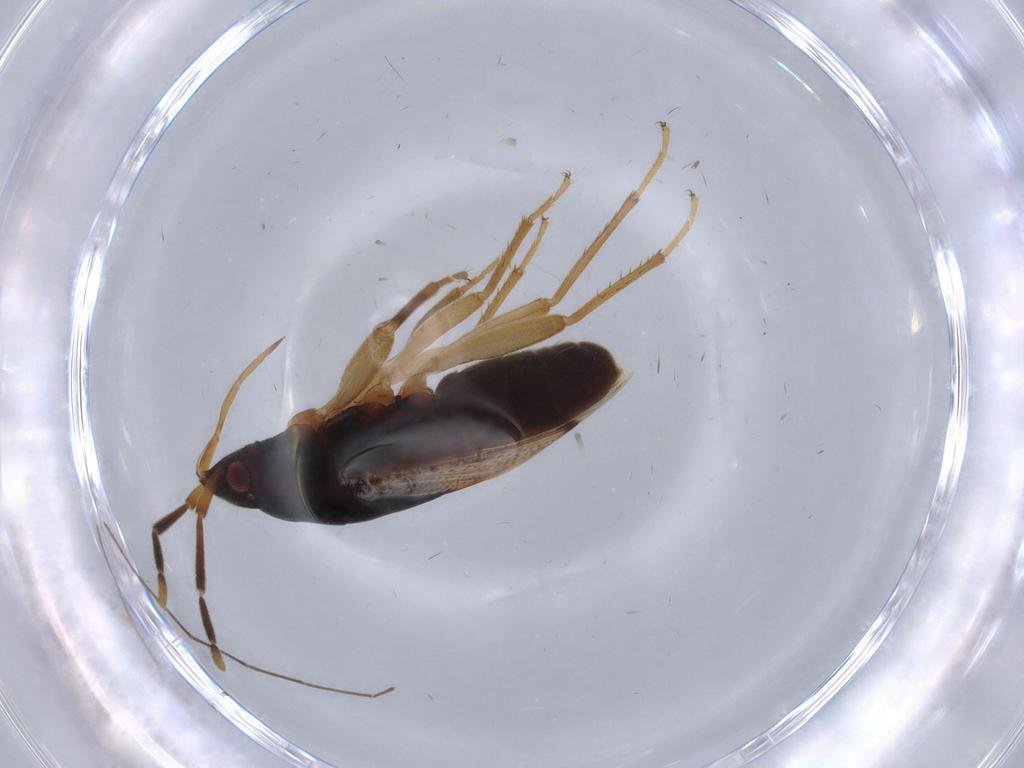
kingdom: Animalia
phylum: Arthropoda
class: Insecta
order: Hemiptera
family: Rhyparochromidae
